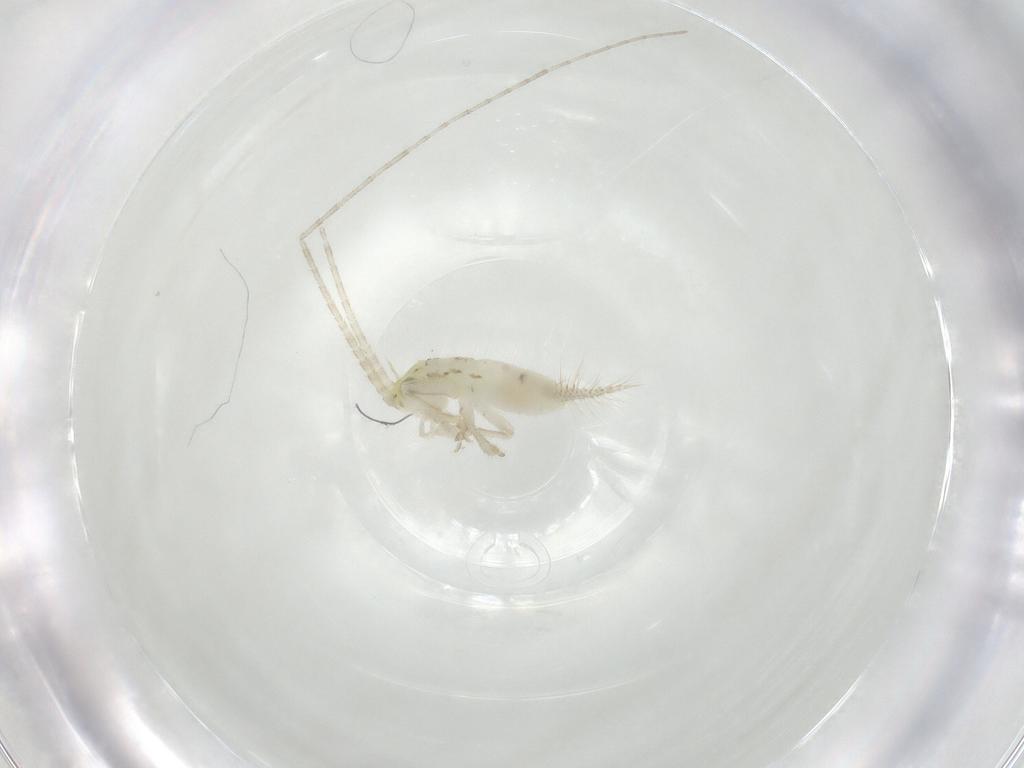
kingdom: Animalia
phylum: Arthropoda
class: Insecta
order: Orthoptera
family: Trigonidiidae
